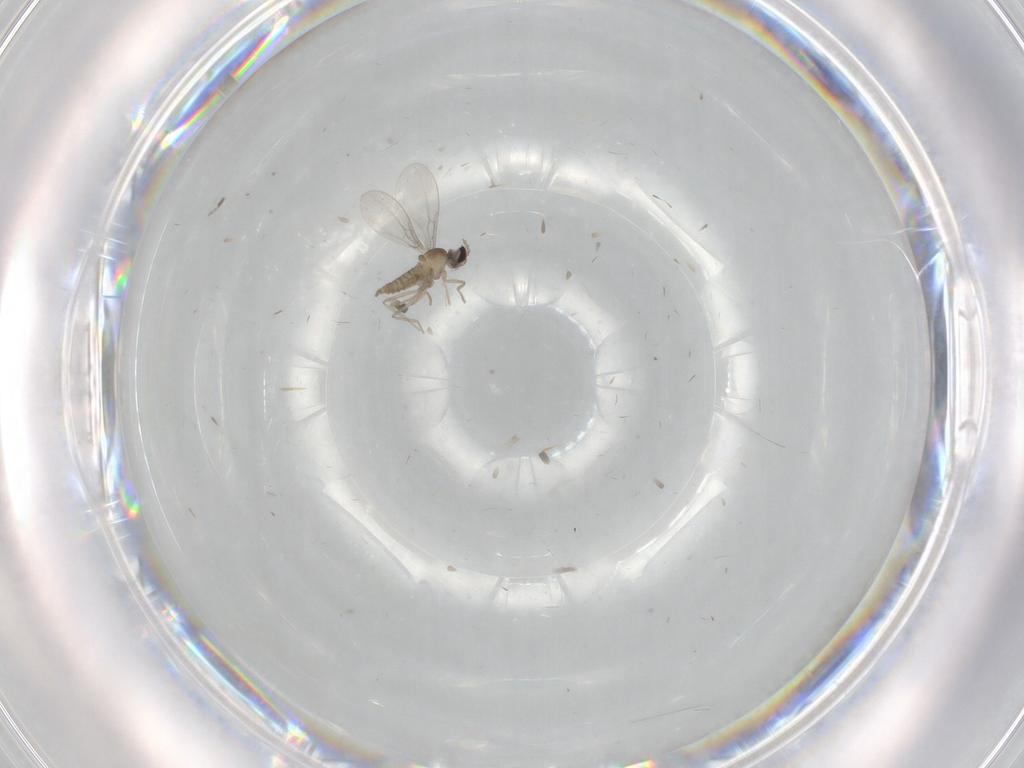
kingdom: Animalia
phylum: Arthropoda
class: Insecta
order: Diptera
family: Cecidomyiidae
